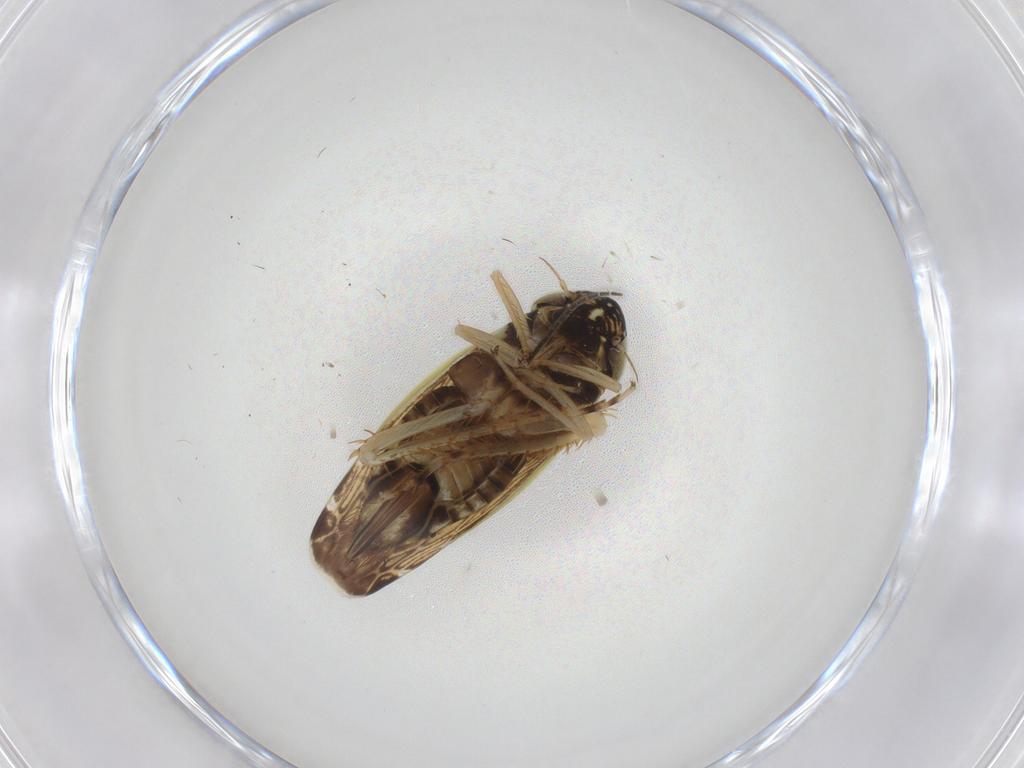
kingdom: Animalia
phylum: Arthropoda
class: Insecta
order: Hemiptera
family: Cicadellidae
